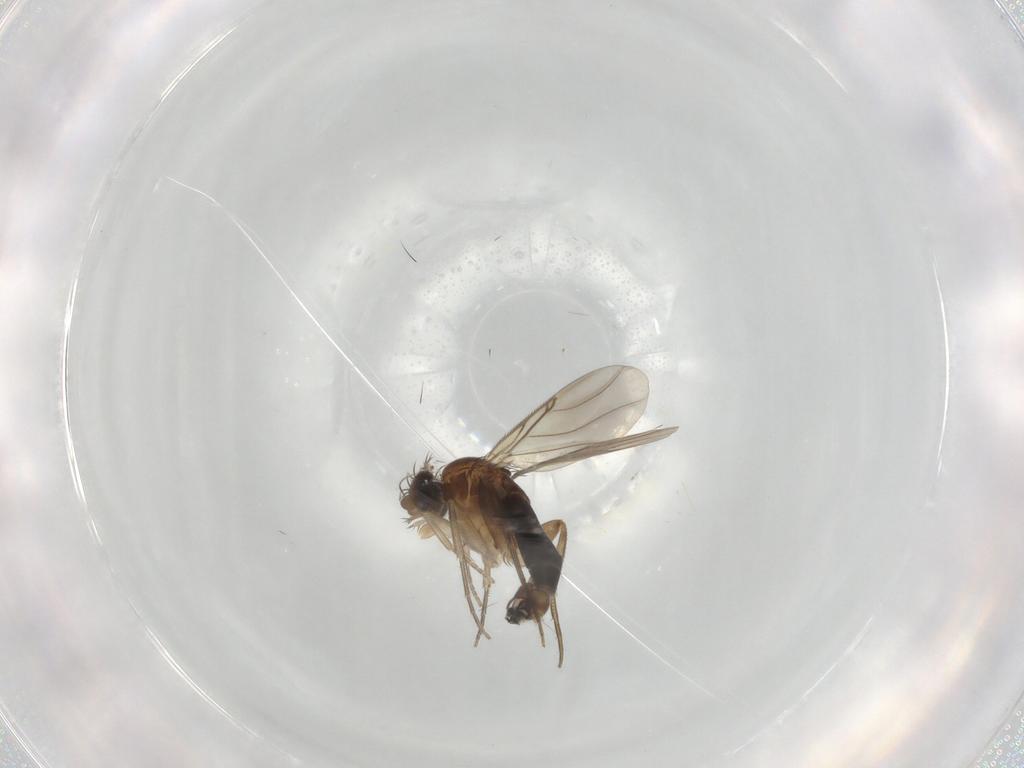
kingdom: Animalia
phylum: Arthropoda
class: Insecta
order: Diptera
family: Phoridae
